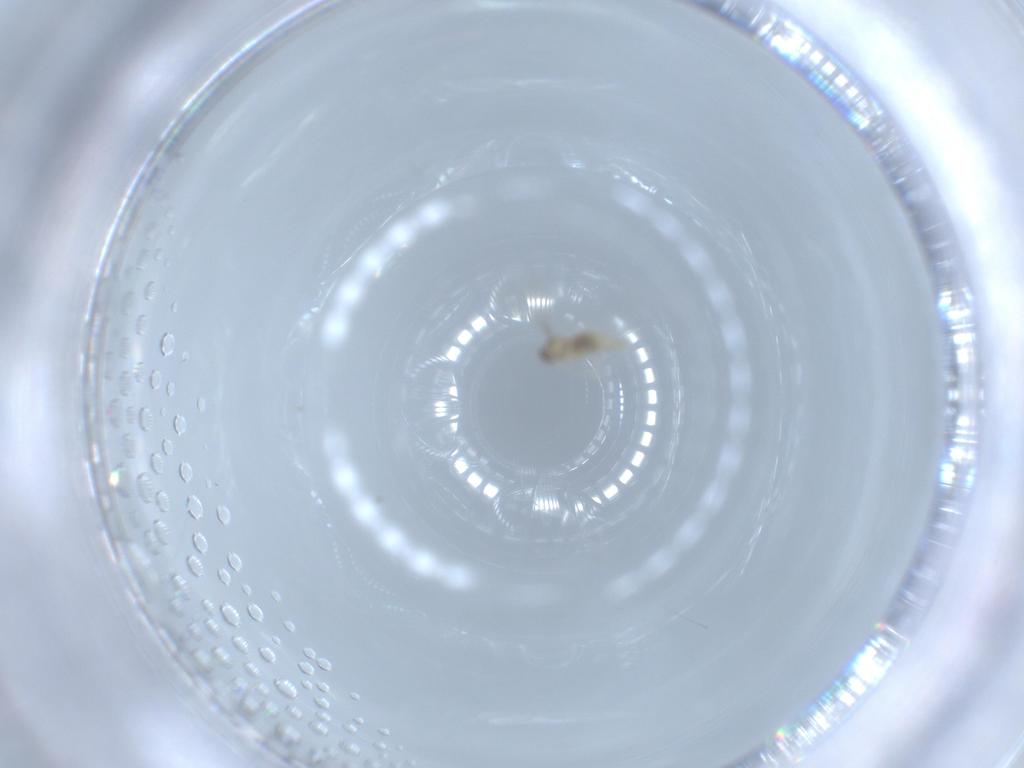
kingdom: Animalia
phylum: Arthropoda
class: Insecta
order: Diptera
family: Cecidomyiidae
